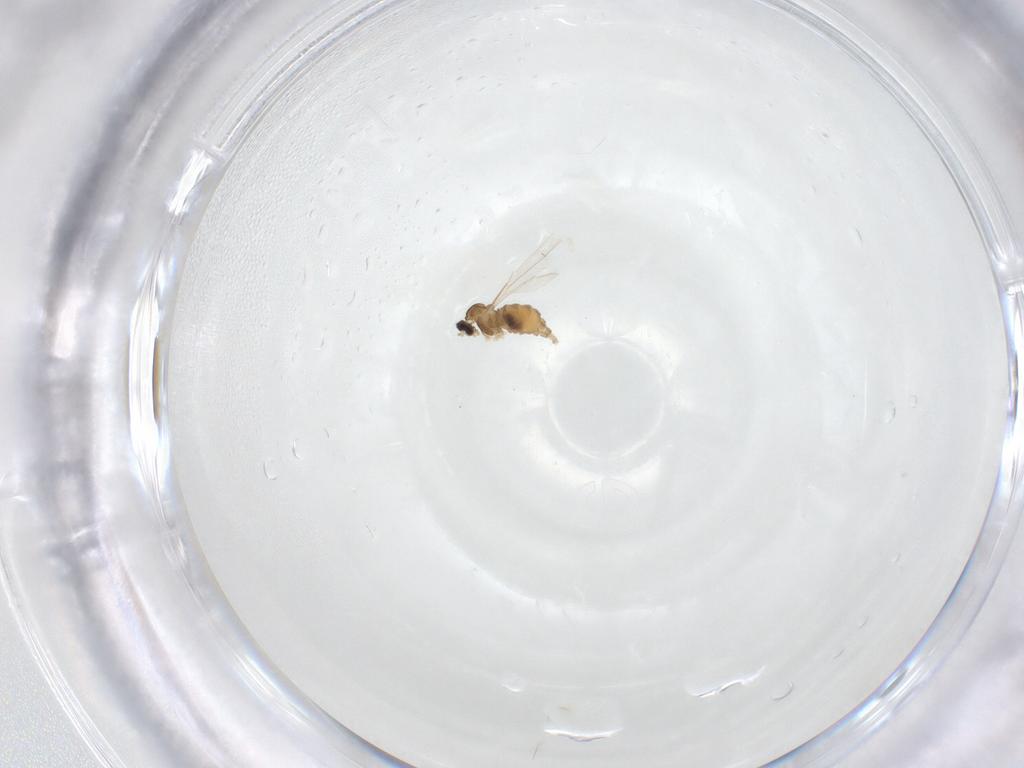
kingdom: Animalia
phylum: Arthropoda
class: Insecta
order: Diptera
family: Cecidomyiidae
